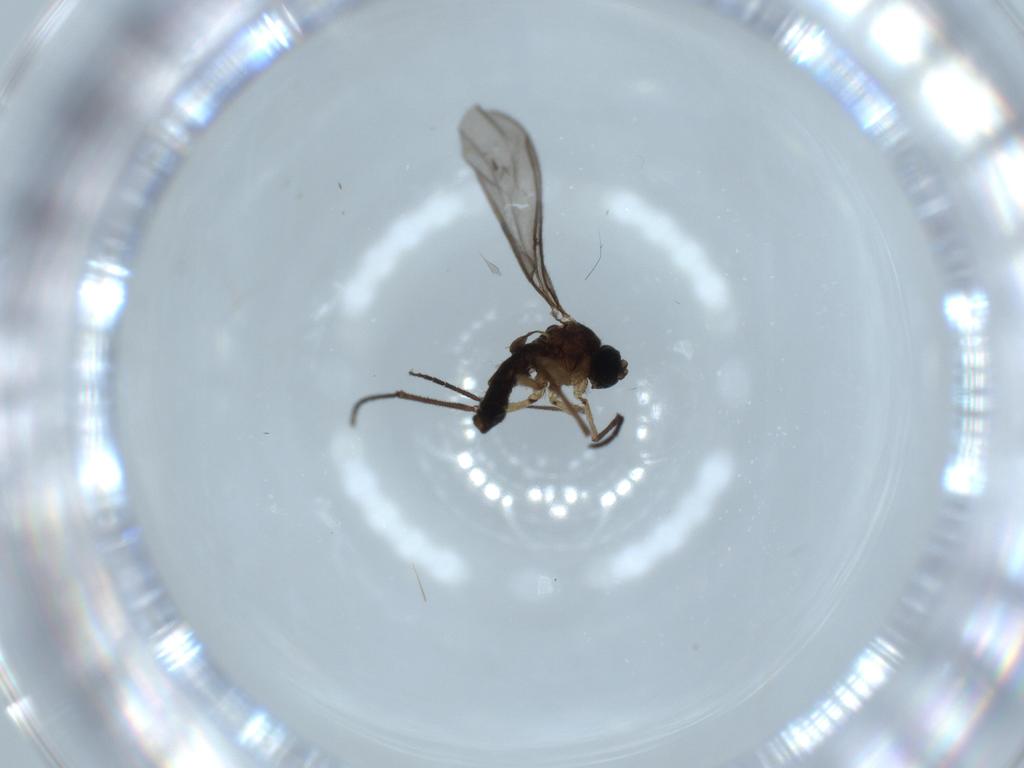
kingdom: Animalia
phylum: Arthropoda
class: Insecta
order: Diptera
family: Sciaridae
